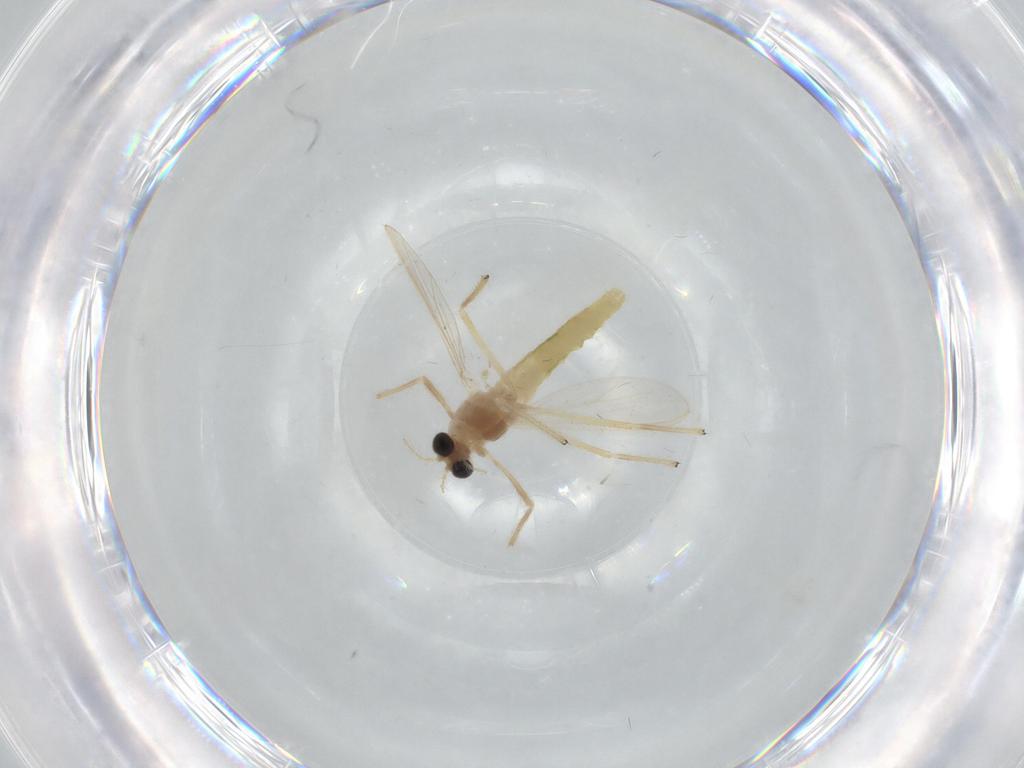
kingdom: Animalia
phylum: Arthropoda
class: Insecta
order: Diptera
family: Chironomidae
